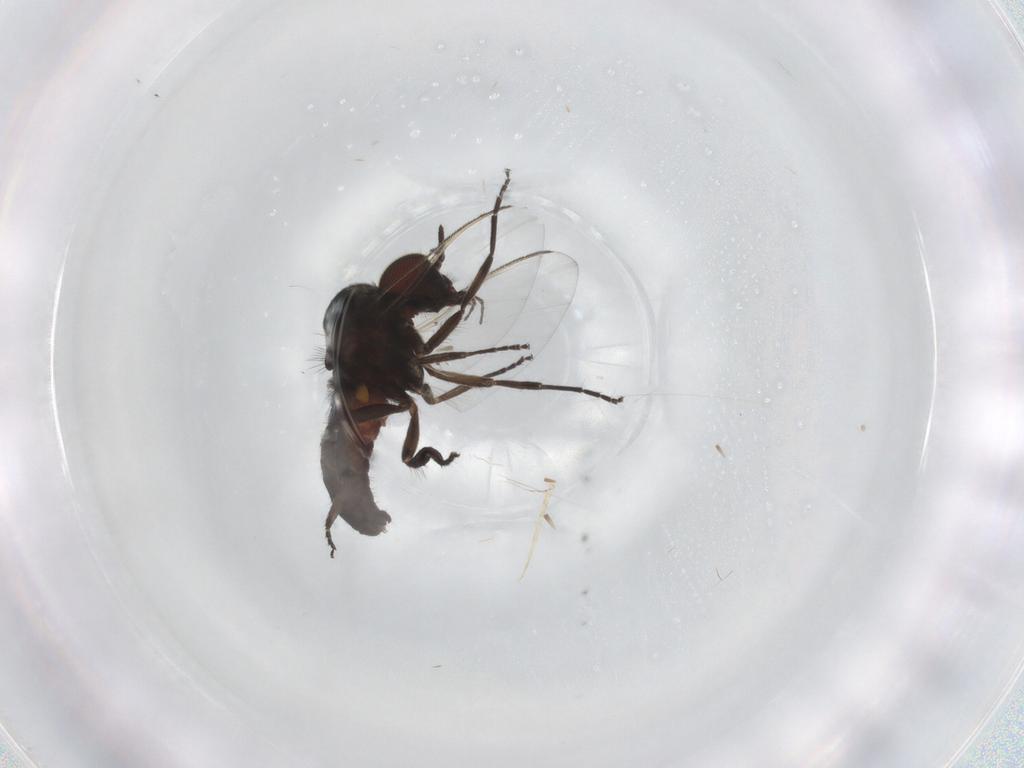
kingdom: Animalia
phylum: Arthropoda
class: Insecta
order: Diptera
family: Simuliidae
